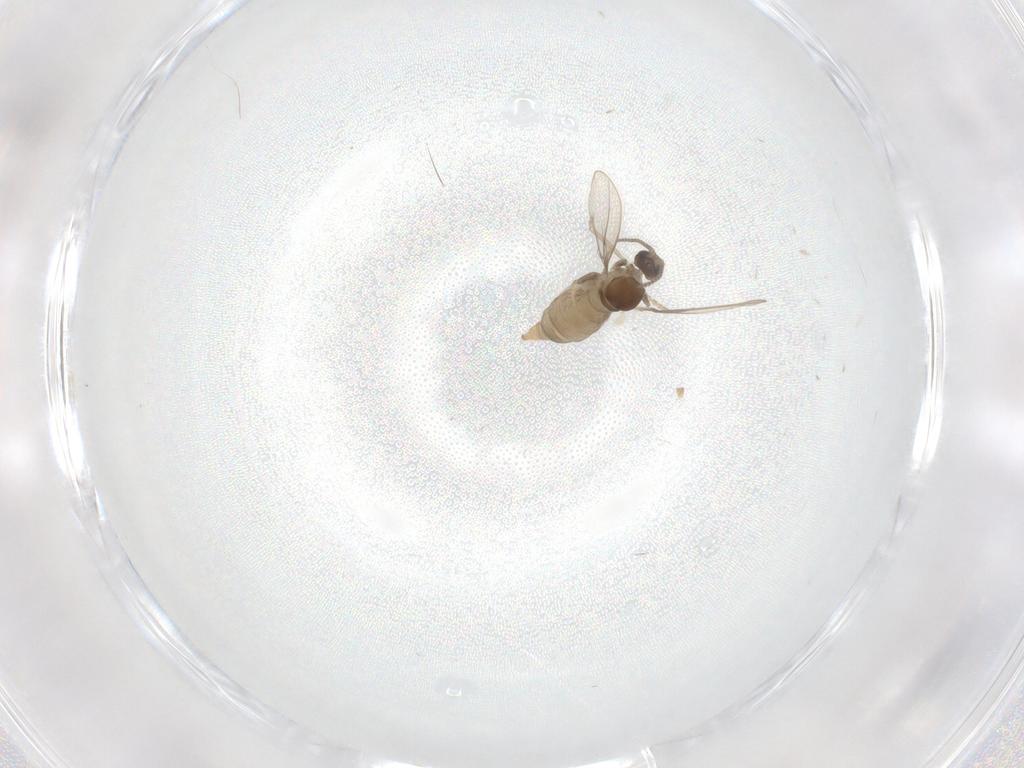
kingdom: Animalia
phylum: Arthropoda
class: Insecta
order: Diptera
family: Cecidomyiidae
